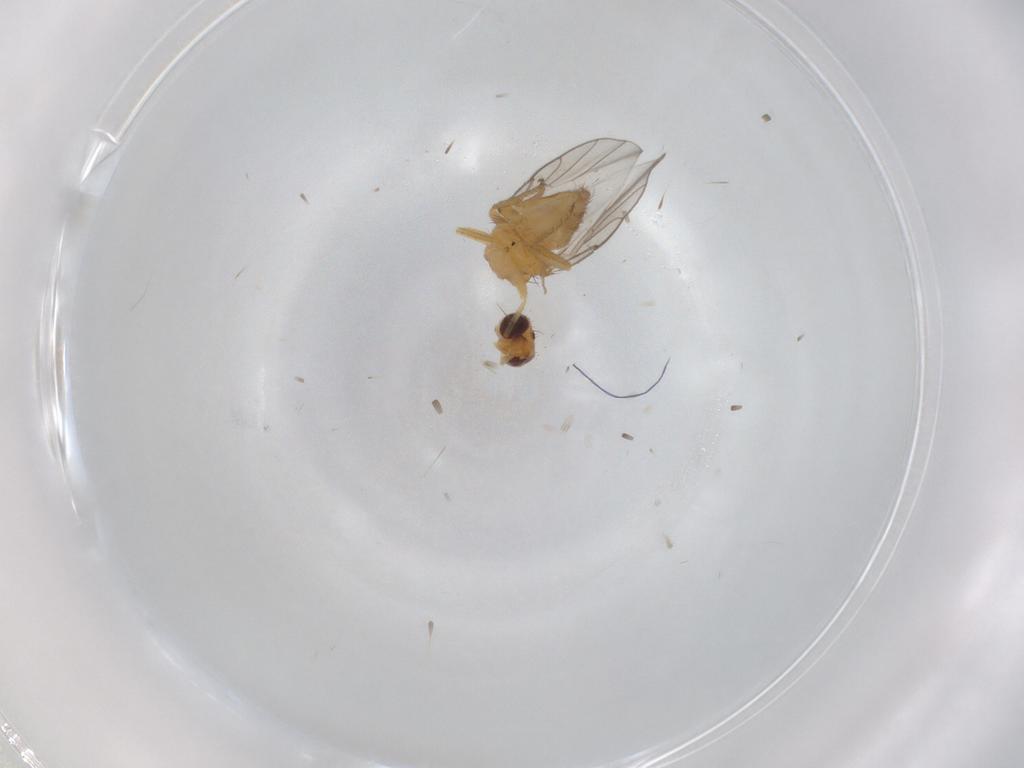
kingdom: Animalia
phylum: Arthropoda
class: Insecta
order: Diptera
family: Chloropidae
